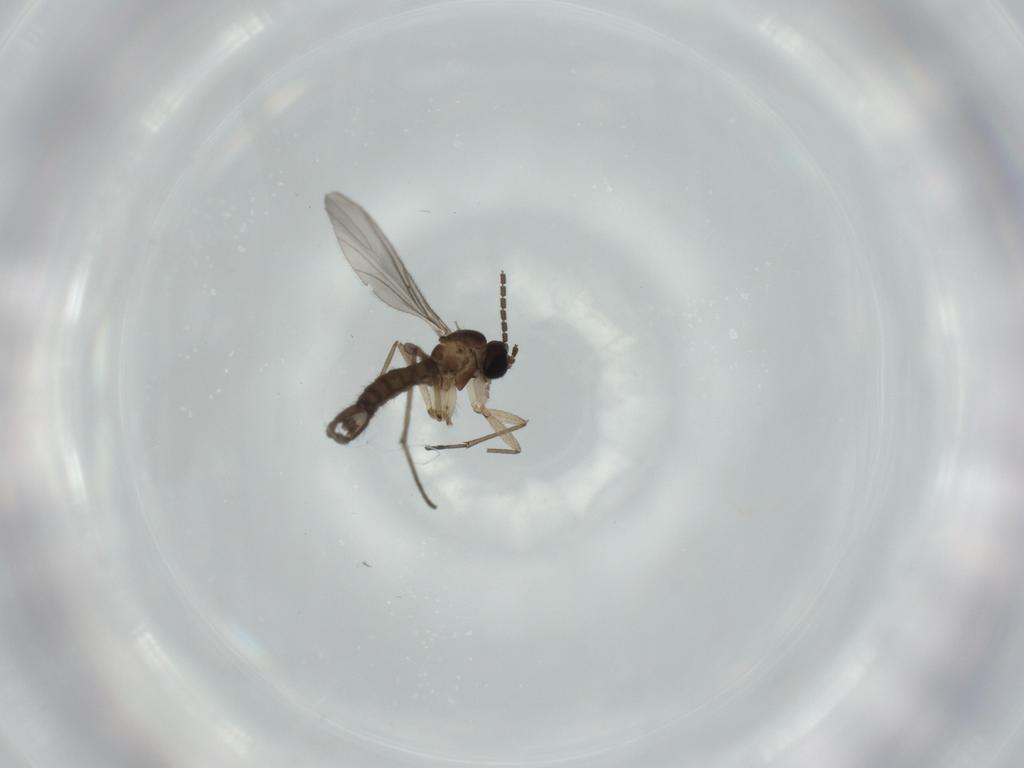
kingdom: Animalia
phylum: Arthropoda
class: Insecta
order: Diptera
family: Sciaridae
